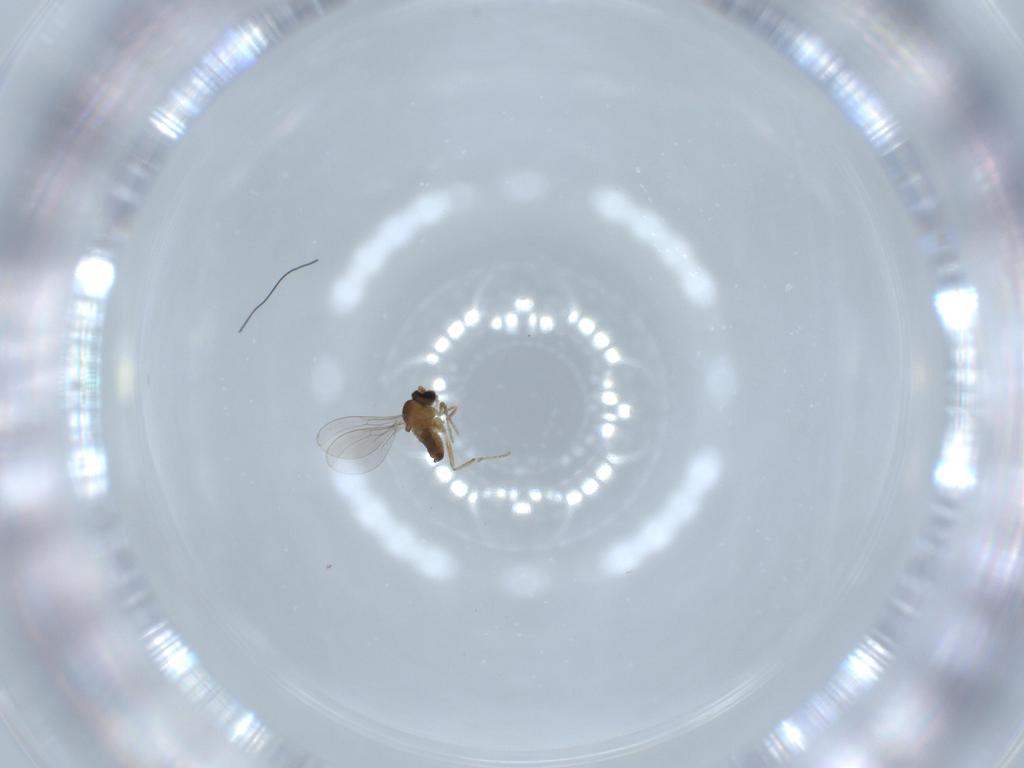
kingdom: Animalia
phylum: Arthropoda
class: Insecta
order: Diptera
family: Cecidomyiidae
